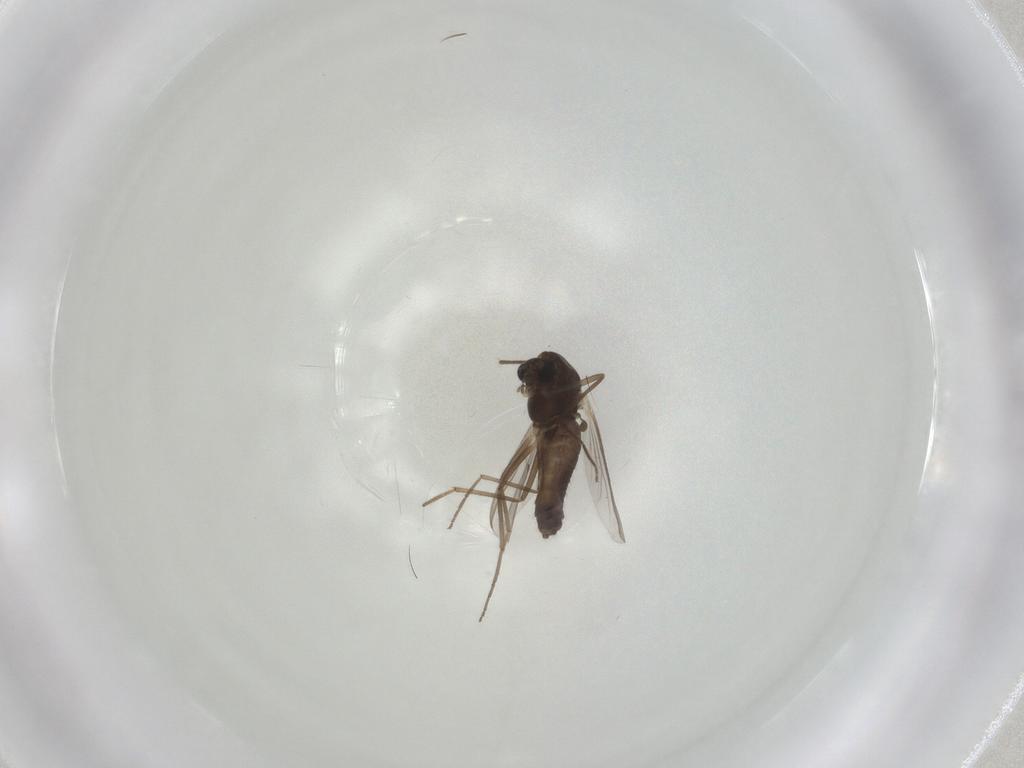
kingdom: Animalia
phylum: Arthropoda
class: Insecta
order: Diptera
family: Chironomidae
